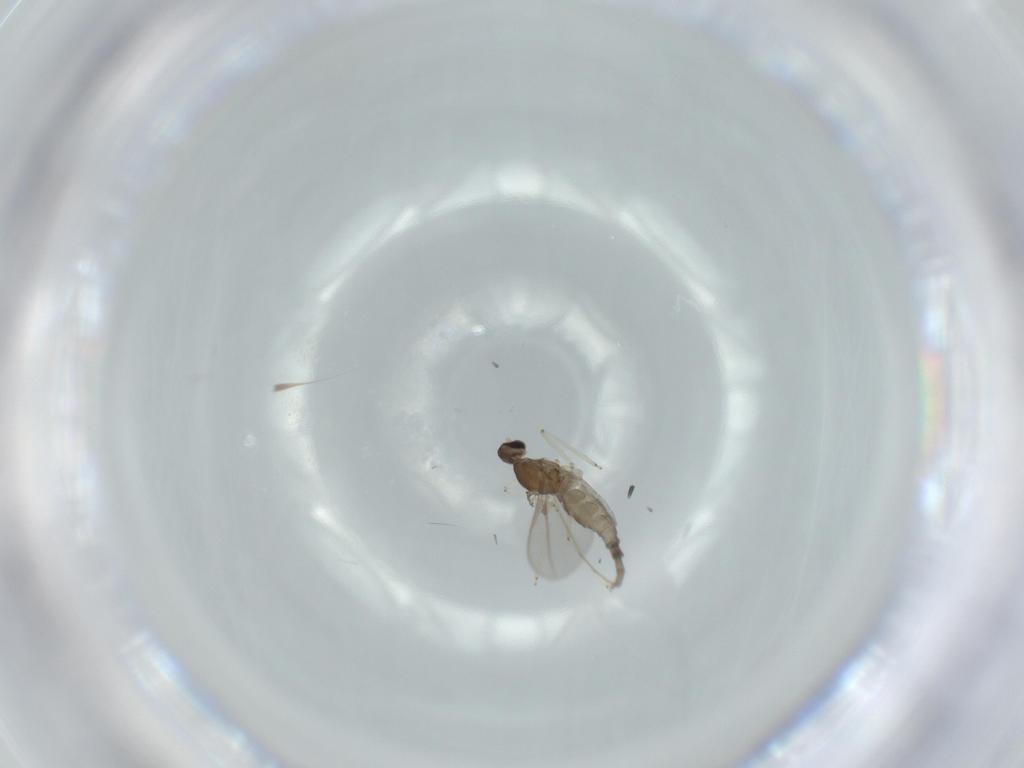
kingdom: Animalia
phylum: Arthropoda
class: Insecta
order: Diptera
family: Cecidomyiidae
